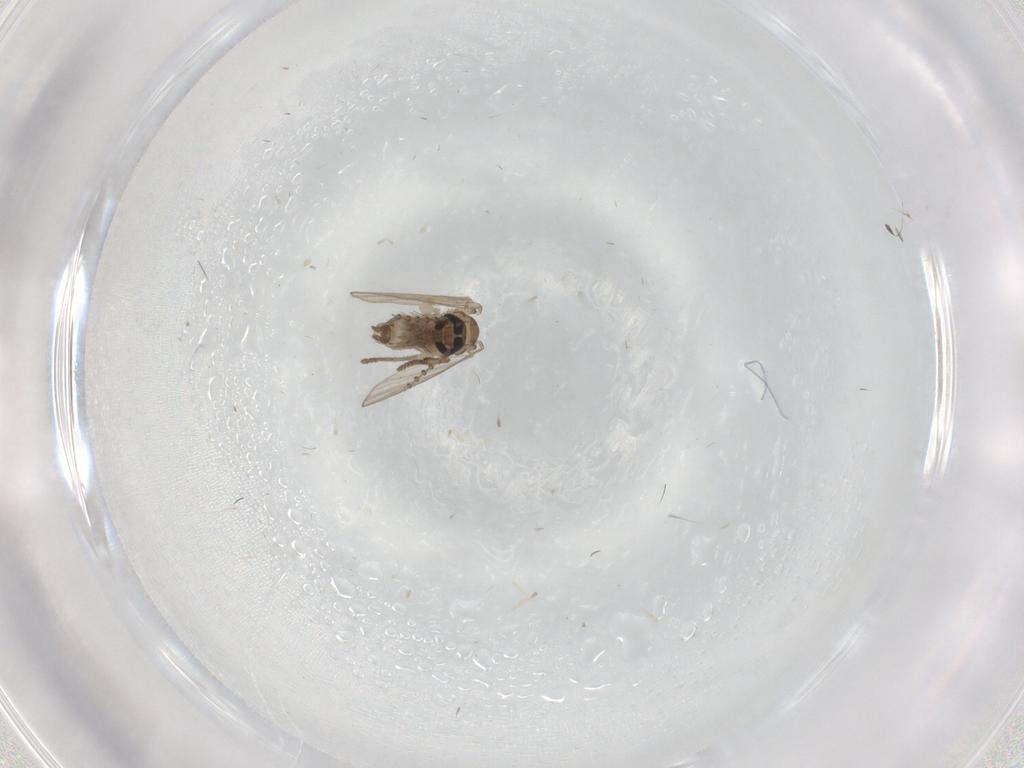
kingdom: Animalia
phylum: Arthropoda
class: Insecta
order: Diptera
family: Psychodidae
